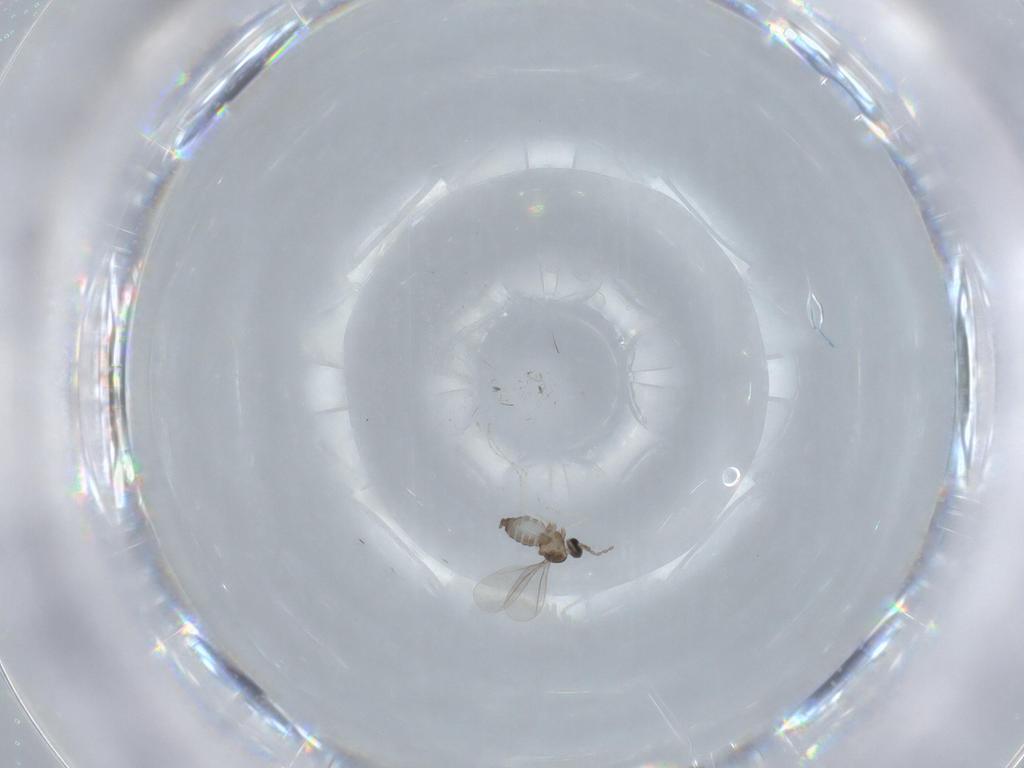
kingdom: Animalia
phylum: Arthropoda
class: Insecta
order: Diptera
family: Cecidomyiidae
